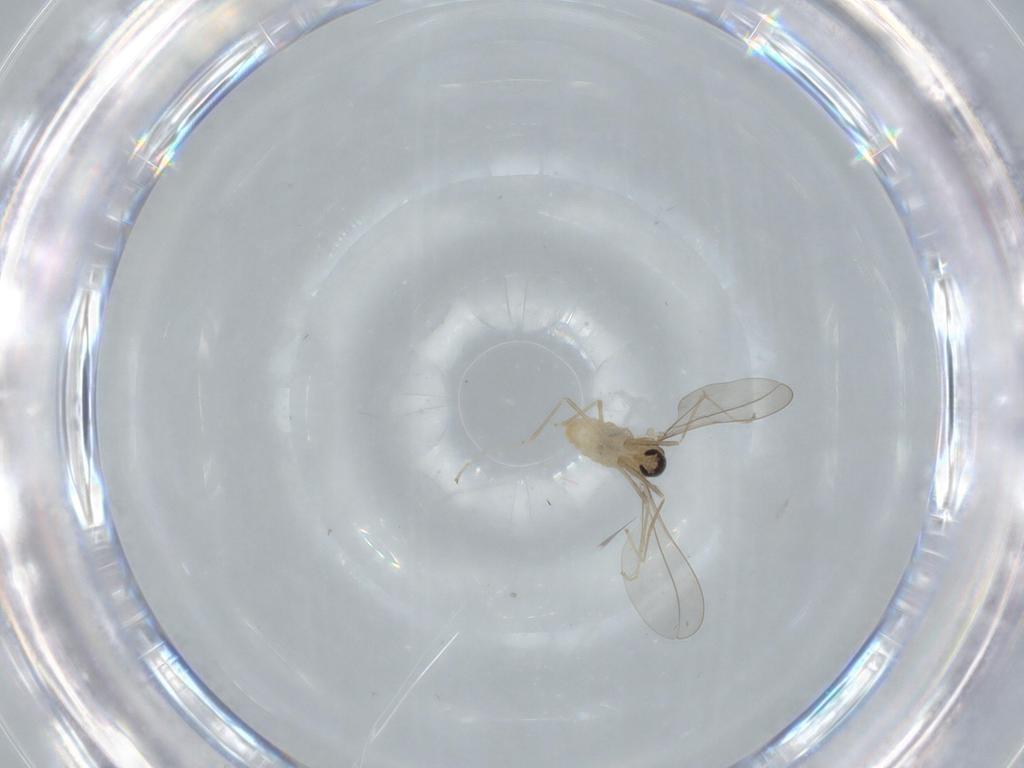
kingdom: Animalia
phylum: Arthropoda
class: Insecta
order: Diptera
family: Cecidomyiidae
